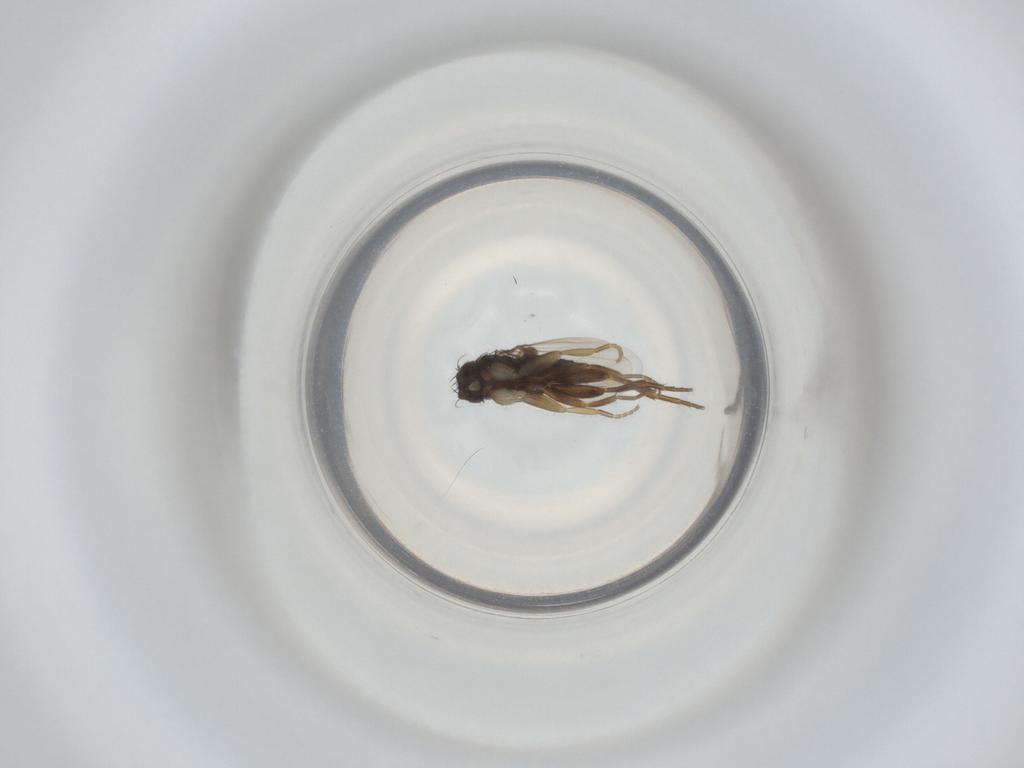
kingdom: Animalia
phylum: Arthropoda
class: Insecta
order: Diptera
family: Phoridae
